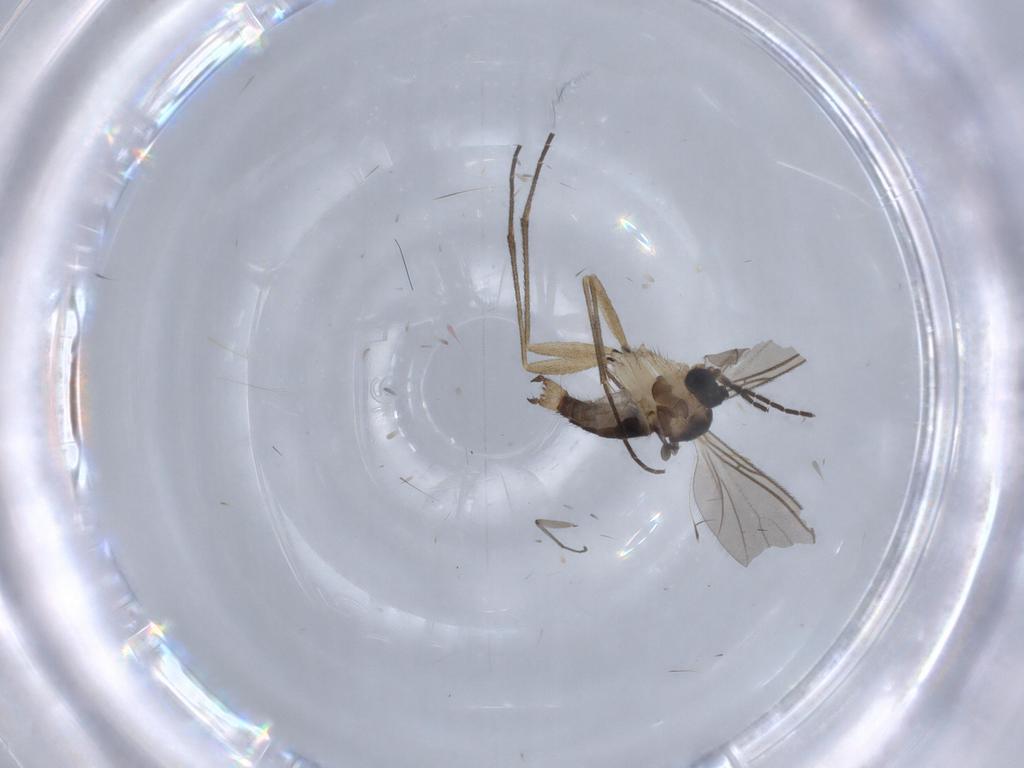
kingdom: Animalia
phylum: Arthropoda
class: Insecta
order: Diptera
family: Sciaridae
